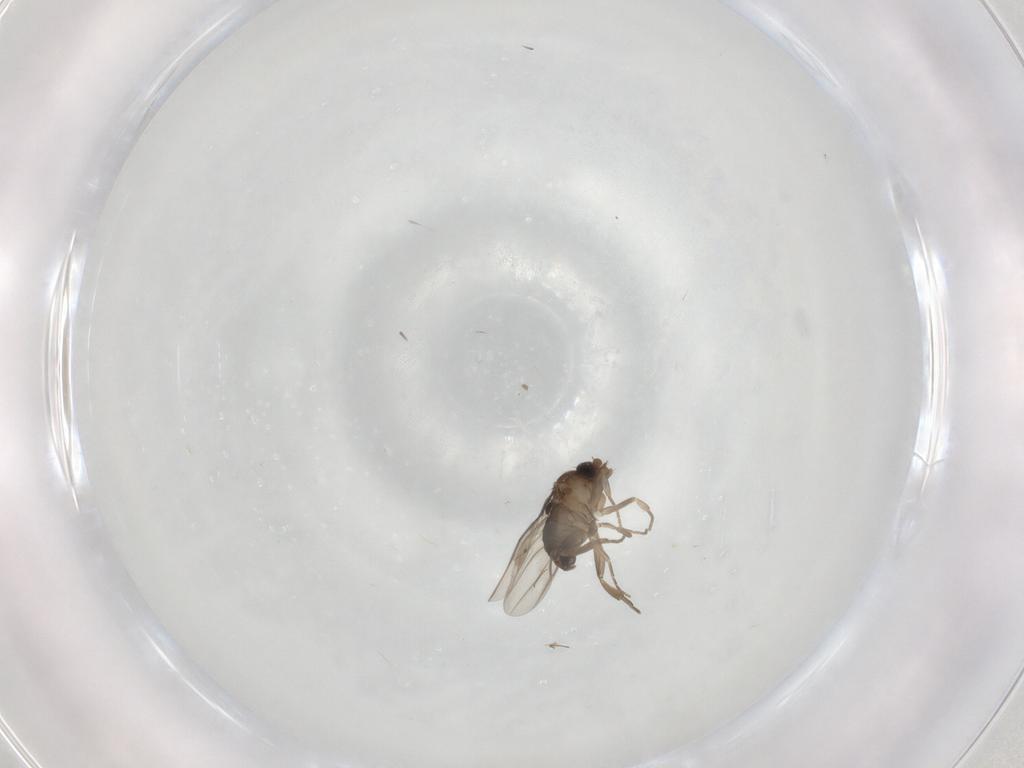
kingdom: Animalia
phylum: Arthropoda
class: Insecta
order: Diptera
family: Phoridae
